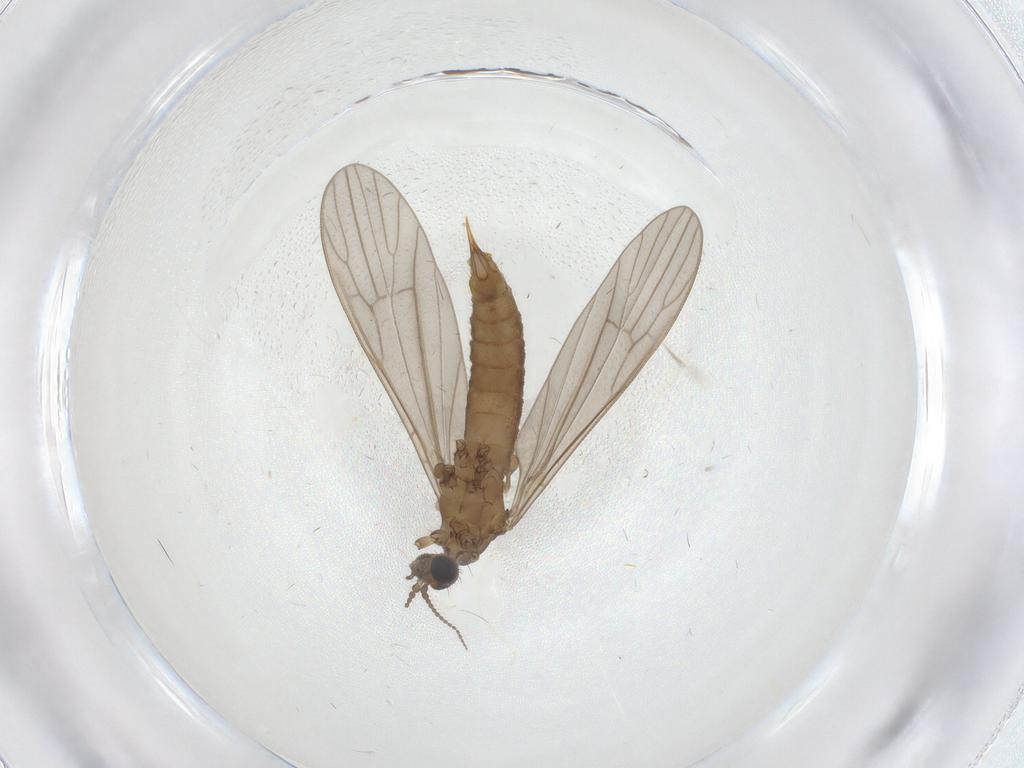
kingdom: Animalia
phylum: Arthropoda
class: Insecta
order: Diptera
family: Limoniidae
